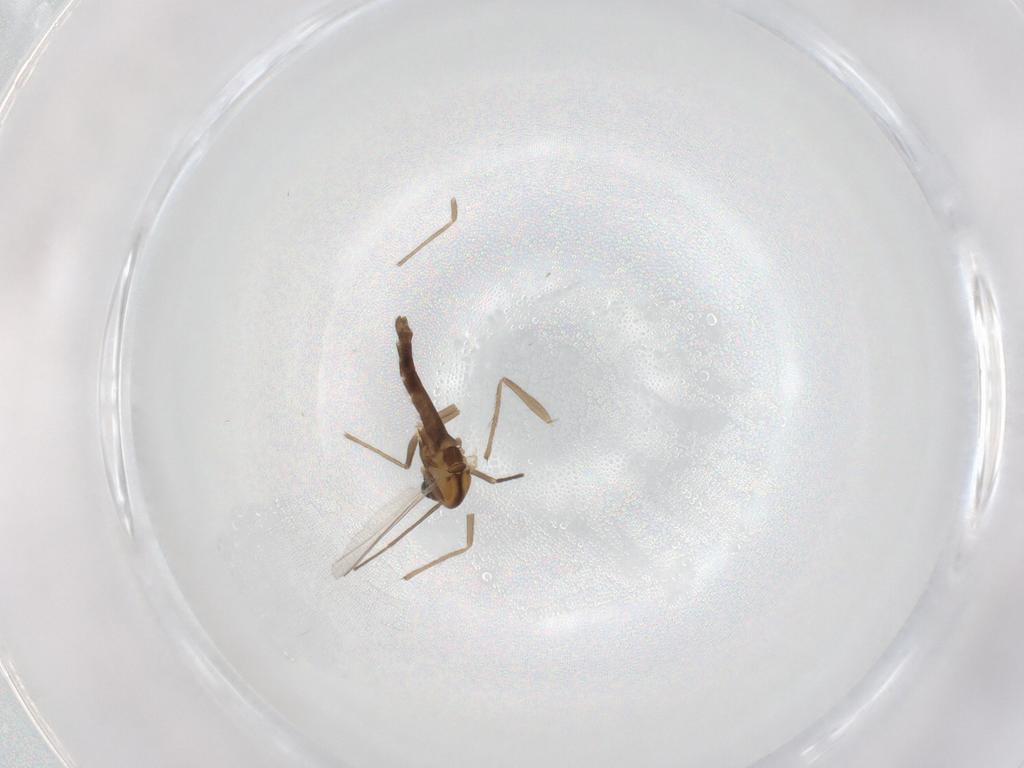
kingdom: Animalia
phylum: Arthropoda
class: Insecta
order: Diptera
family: Chironomidae
